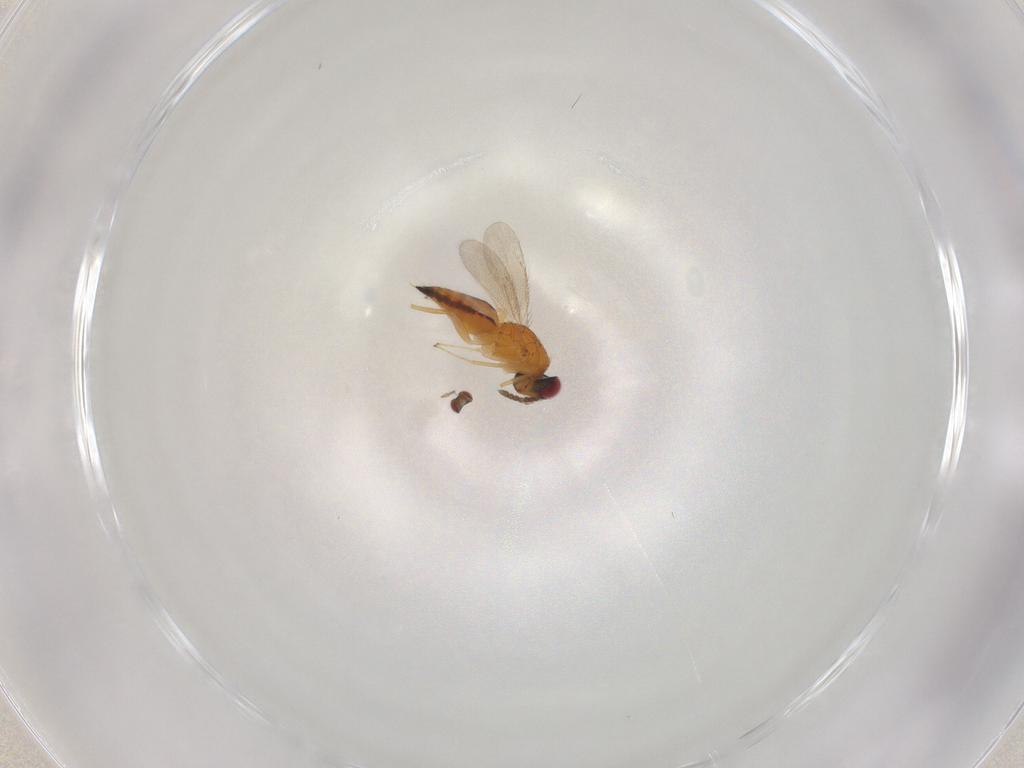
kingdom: Animalia
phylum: Arthropoda
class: Insecta
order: Hymenoptera
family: Eulophidae
